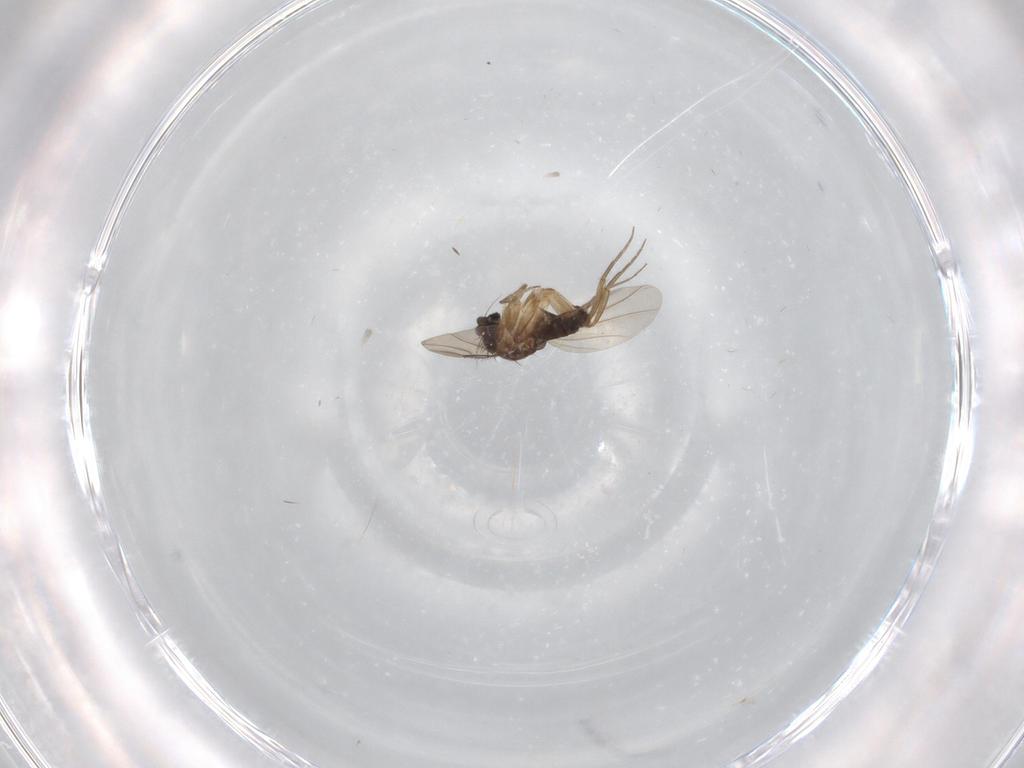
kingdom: Animalia
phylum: Arthropoda
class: Insecta
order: Diptera
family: Phoridae
